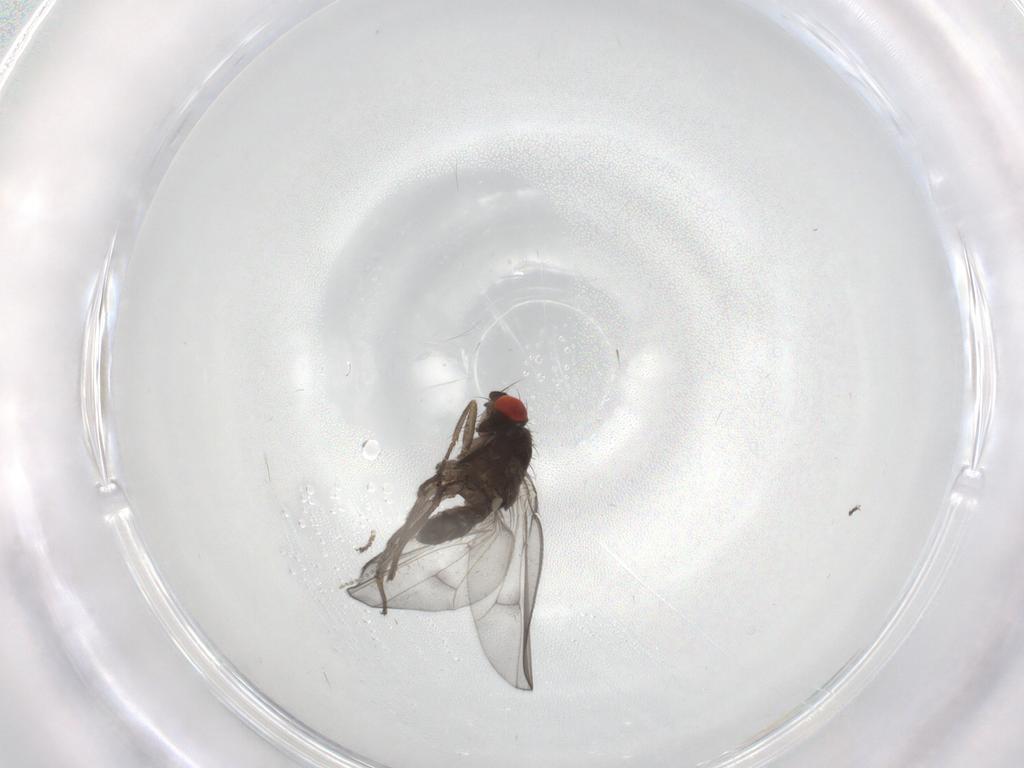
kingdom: Animalia
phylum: Arthropoda
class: Insecta
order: Diptera
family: Drosophilidae
